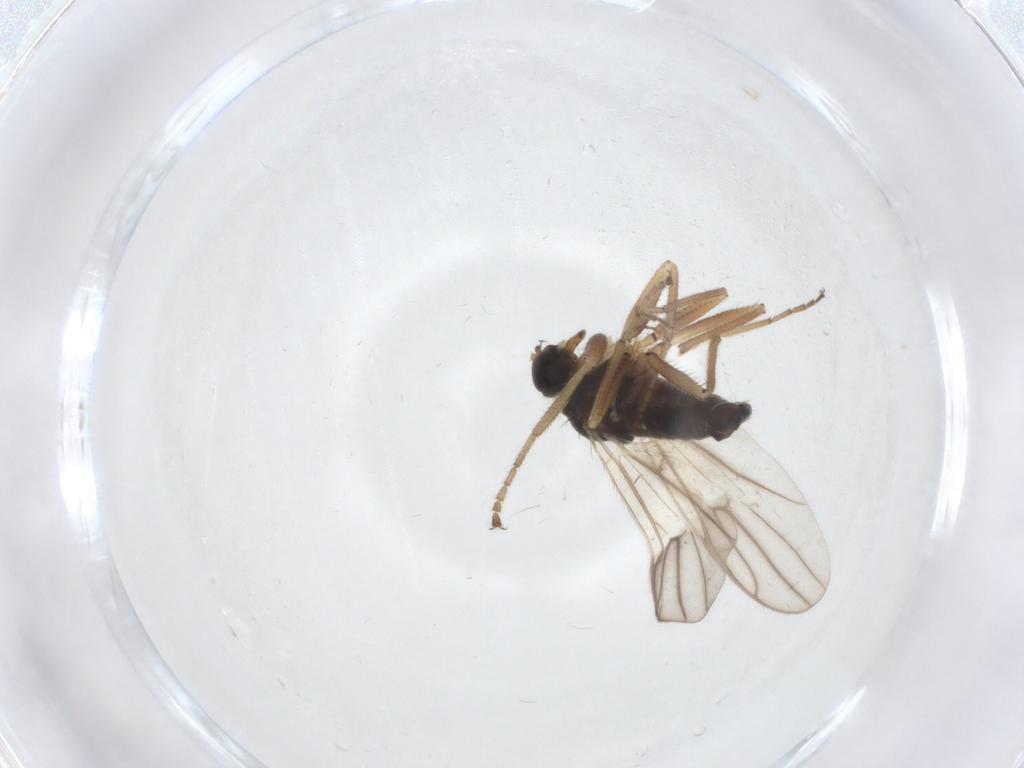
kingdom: Animalia
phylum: Arthropoda
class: Insecta
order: Diptera
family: Hybotidae
